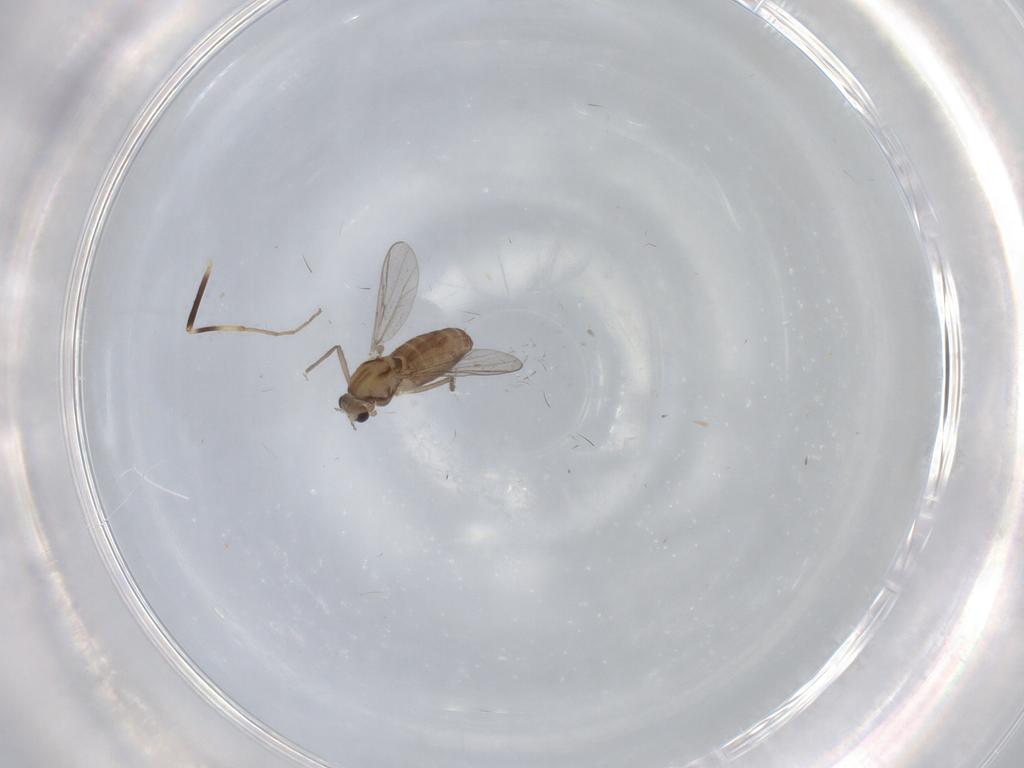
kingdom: Animalia
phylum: Arthropoda
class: Insecta
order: Diptera
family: Chironomidae
